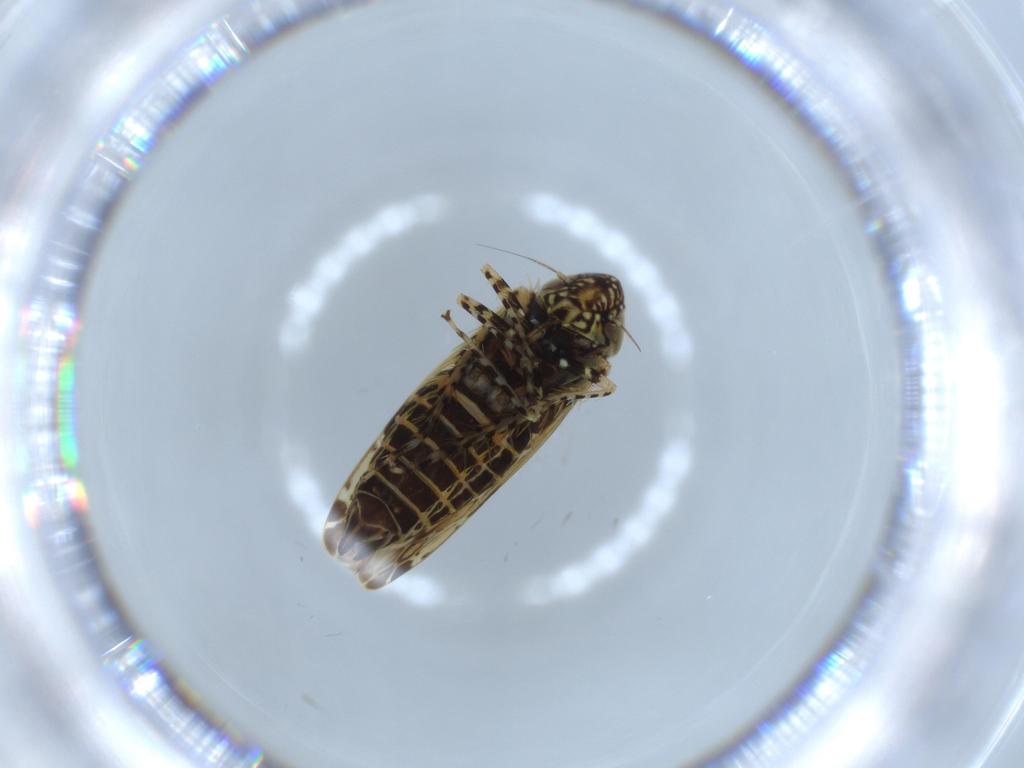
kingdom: Animalia
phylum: Arthropoda
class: Insecta
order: Hemiptera
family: Cicadellidae
